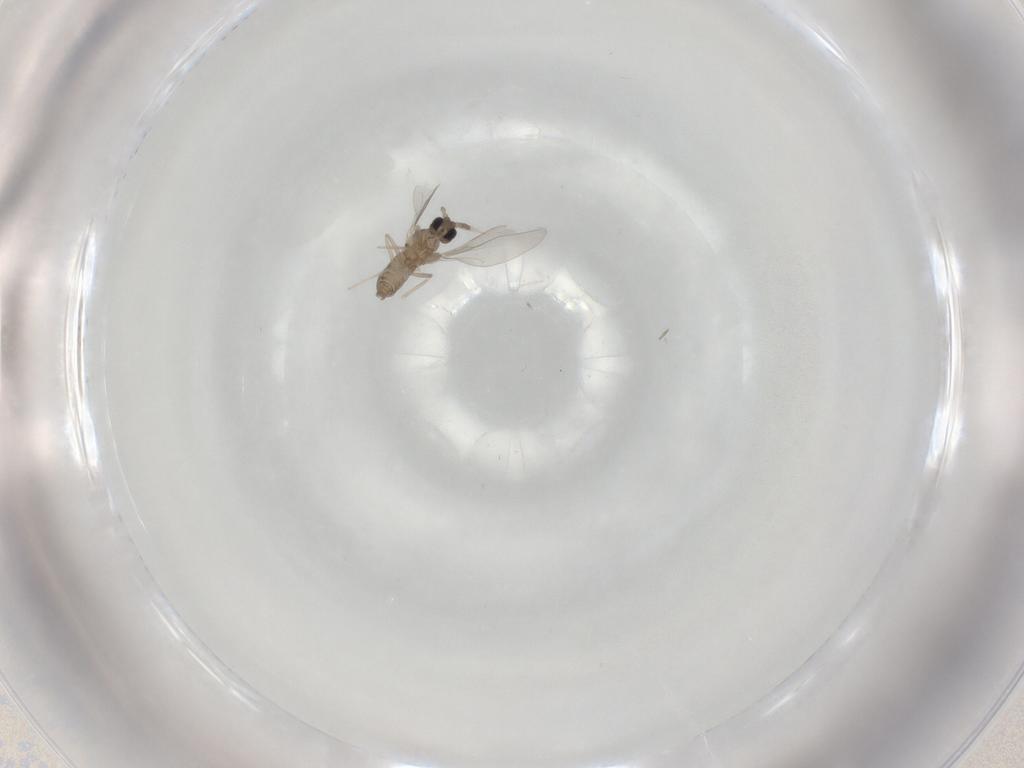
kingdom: Animalia
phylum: Arthropoda
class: Insecta
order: Diptera
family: Cecidomyiidae
